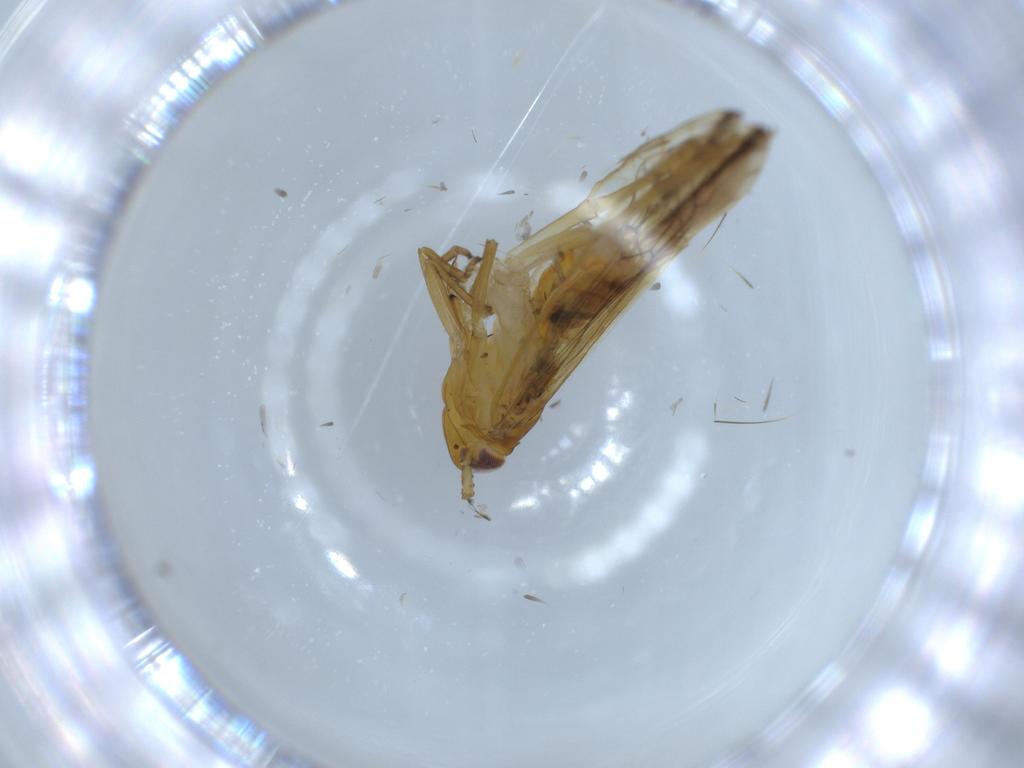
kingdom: Animalia
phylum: Arthropoda
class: Insecta
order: Hemiptera
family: Delphacidae
